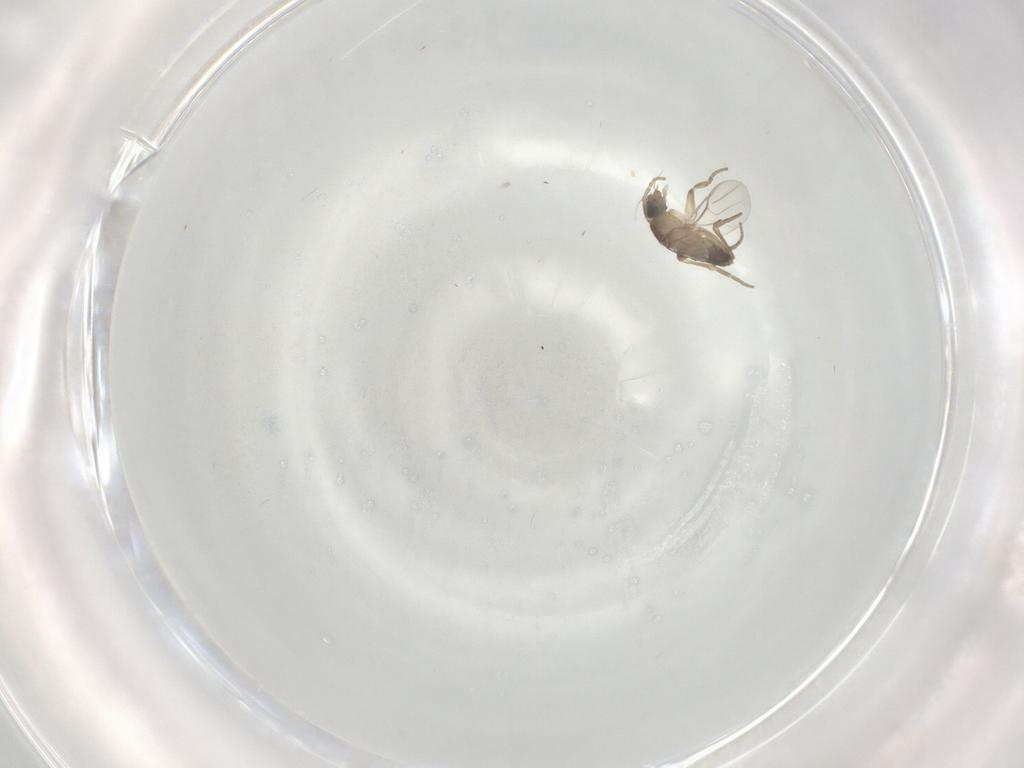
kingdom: Animalia
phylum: Arthropoda
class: Insecta
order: Diptera
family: Phoridae
